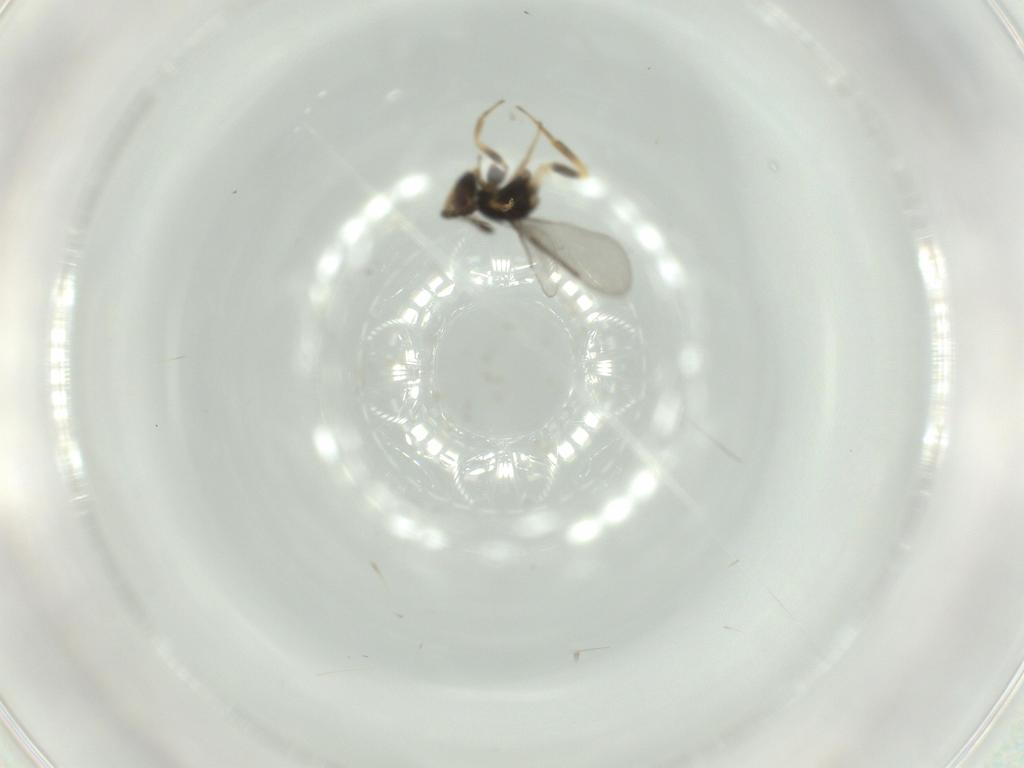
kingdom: Animalia
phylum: Arthropoda
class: Insecta
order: Hymenoptera
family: Aphelinidae
